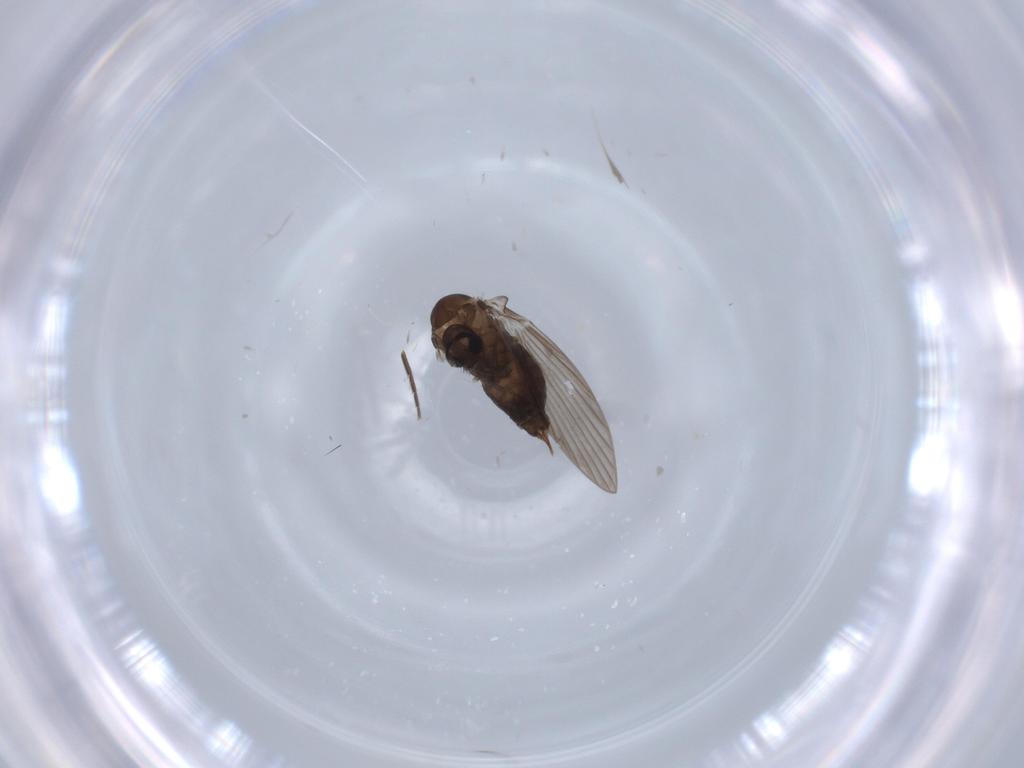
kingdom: Animalia
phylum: Arthropoda
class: Insecta
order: Diptera
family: Psychodidae
